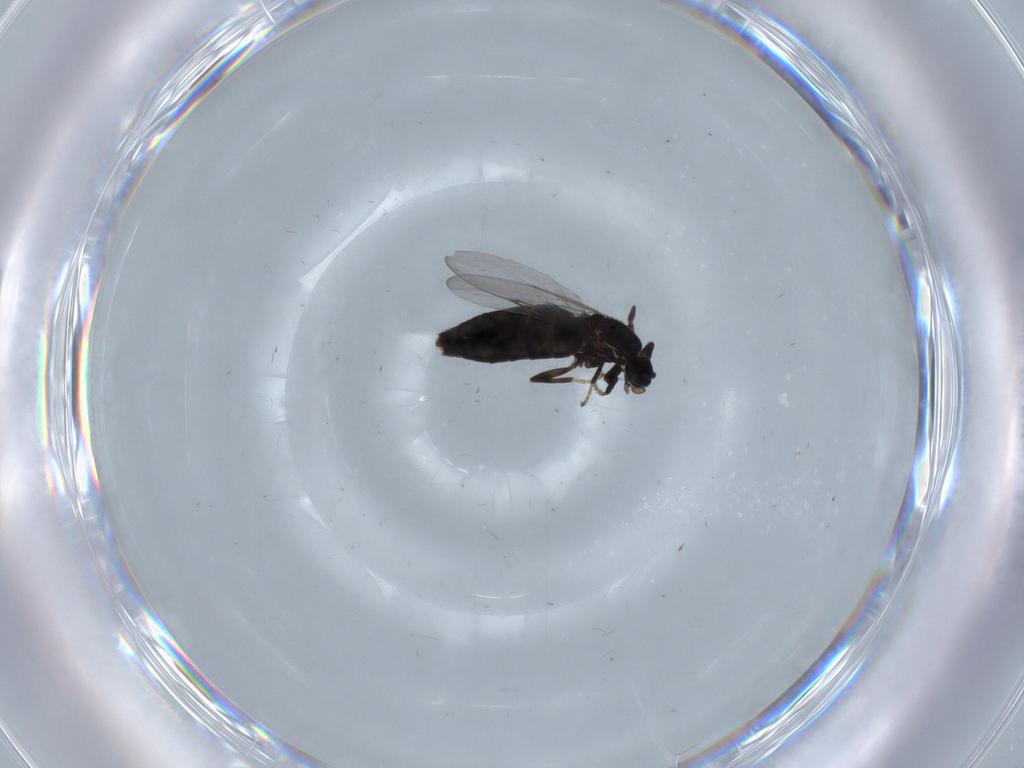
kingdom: Animalia
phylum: Arthropoda
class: Insecta
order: Diptera
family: Scatopsidae
